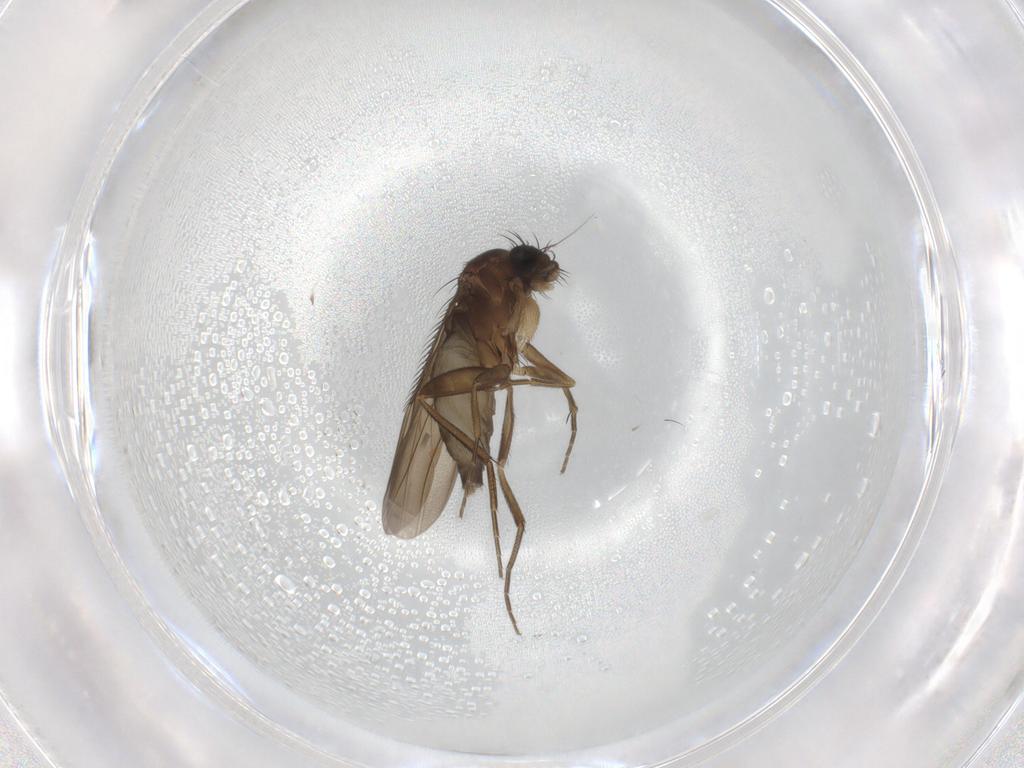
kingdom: Animalia
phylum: Arthropoda
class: Insecta
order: Diptera
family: Phoridae
